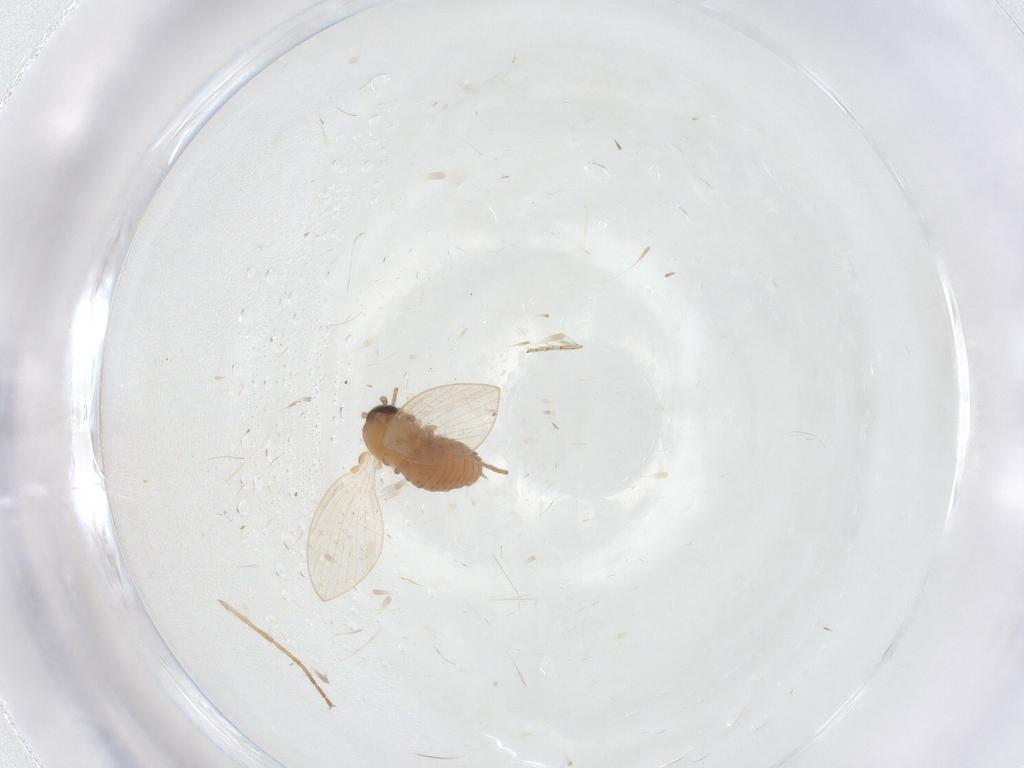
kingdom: Animalia
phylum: Arthropoda
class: Insecta
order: Diptera
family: Psychodidae
